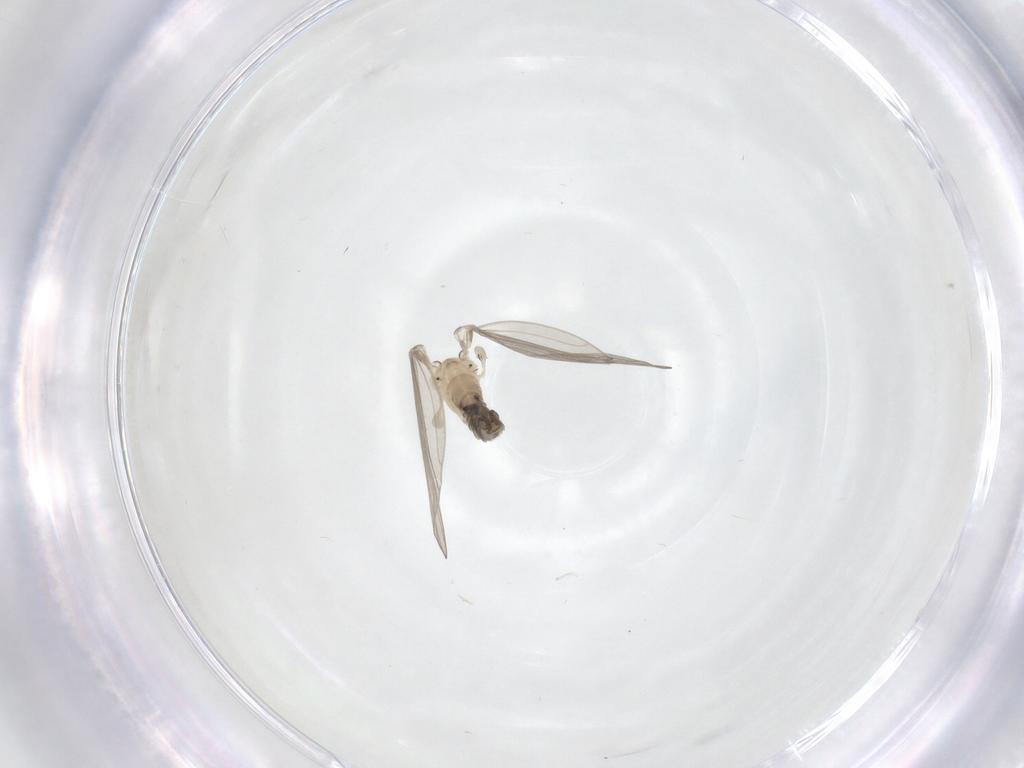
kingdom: Animalia
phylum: Arthropoda
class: Insecta
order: Diptera
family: Psychodidae
